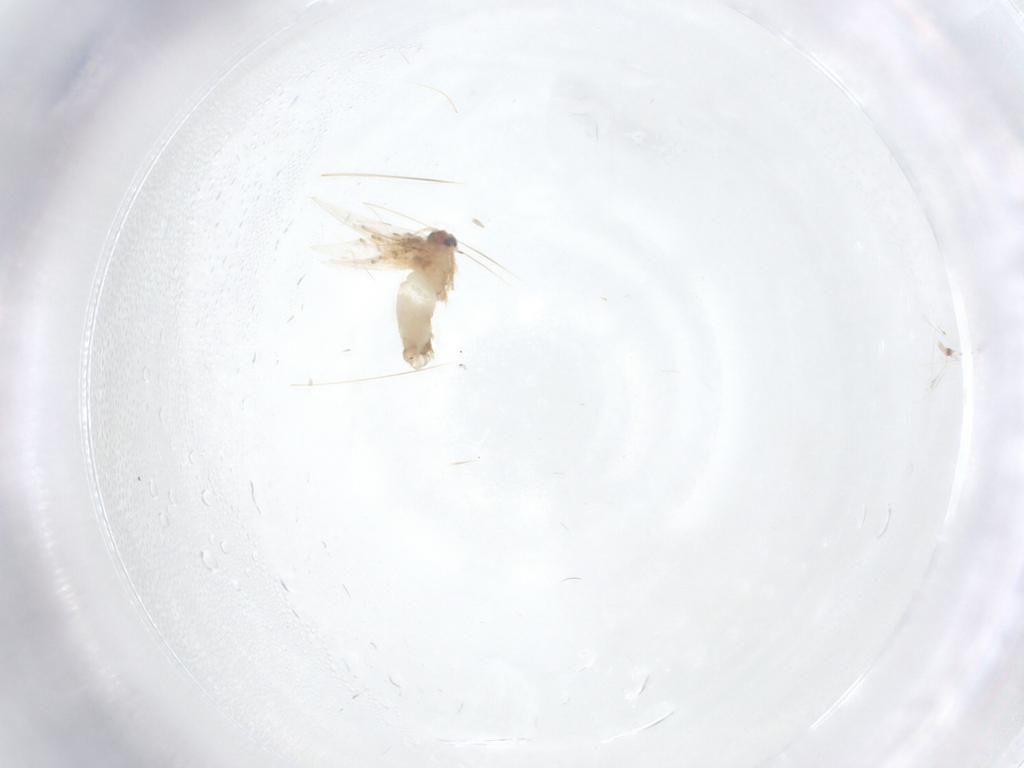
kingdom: Animalia
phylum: Arthropoda
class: Insecta
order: Lepidoptera
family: Nepticulidae
